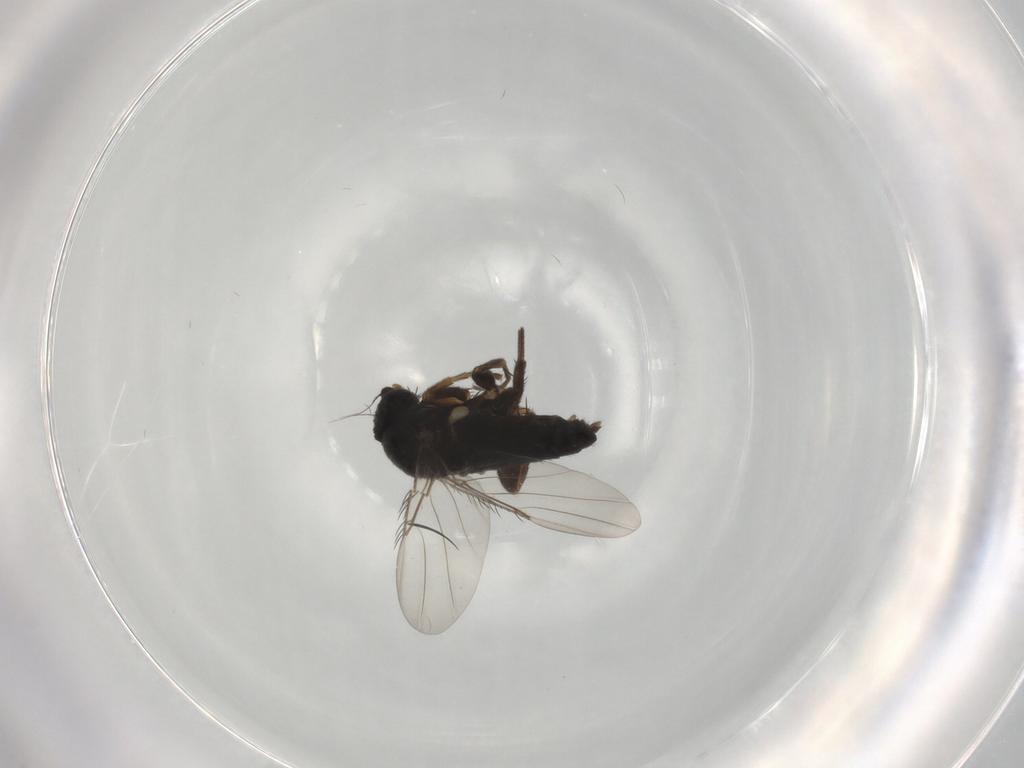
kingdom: Animalia
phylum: Arthropoda
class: Insecta
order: Diptera
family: Phoridae
